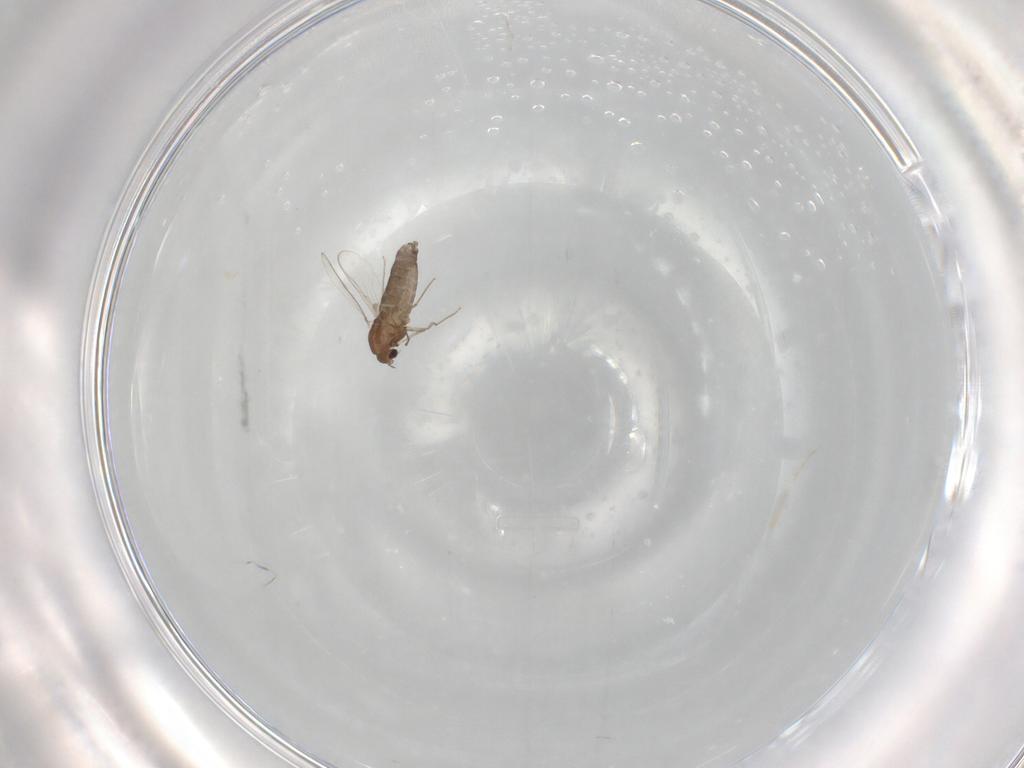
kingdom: Animalia
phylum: Arthropoda
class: Insecta
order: Diptera
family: Chironomidae
